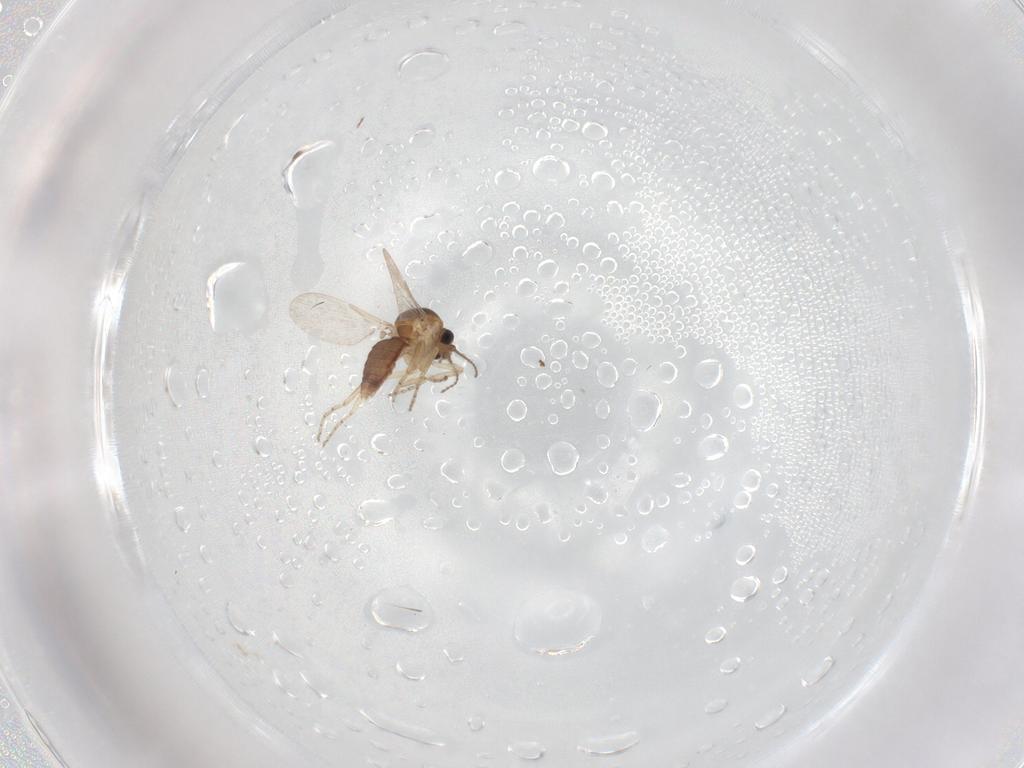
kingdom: Animalia
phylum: Arthropoda
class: Insecta
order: Diptera
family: Ceratopogonidae
